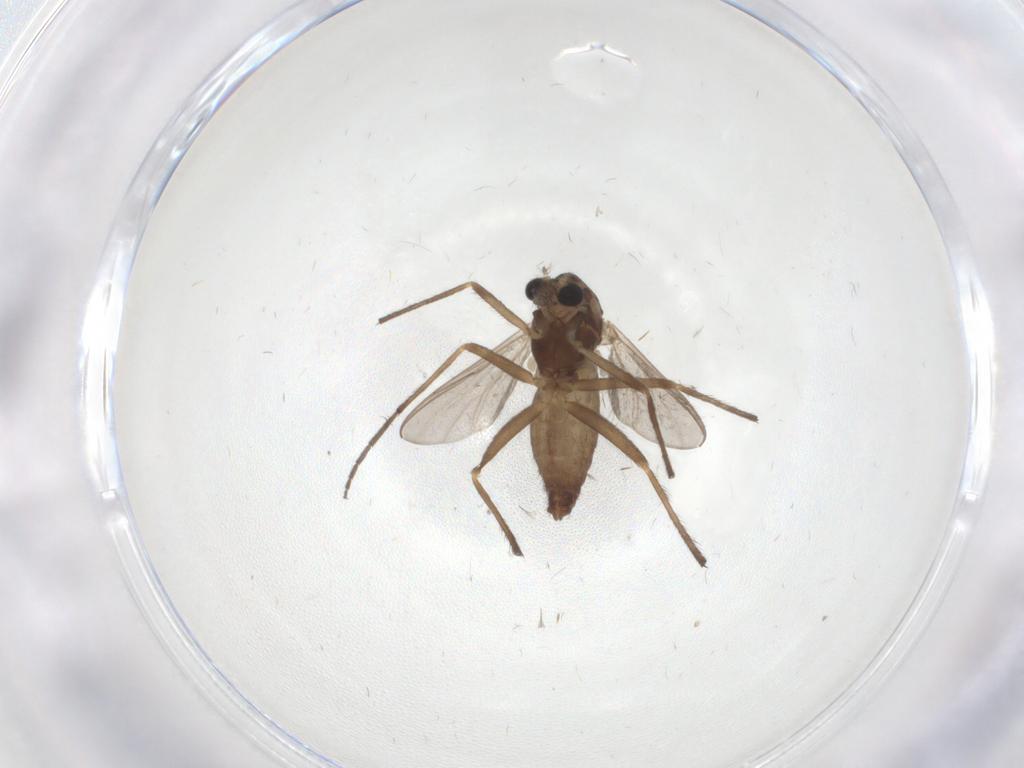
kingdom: Animalia
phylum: Arthropoda
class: Insecta
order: Diptera
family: Chironomidae
